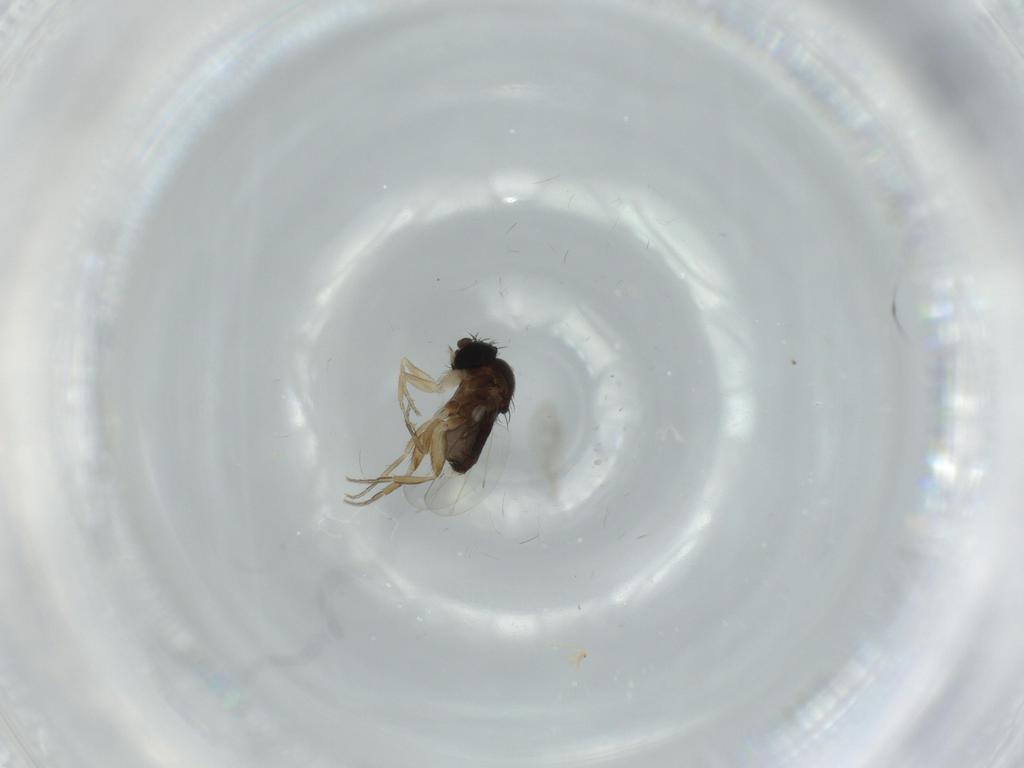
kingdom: Animalia
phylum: Arthropoda
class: Insecta
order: Diptera
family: Phoridae
